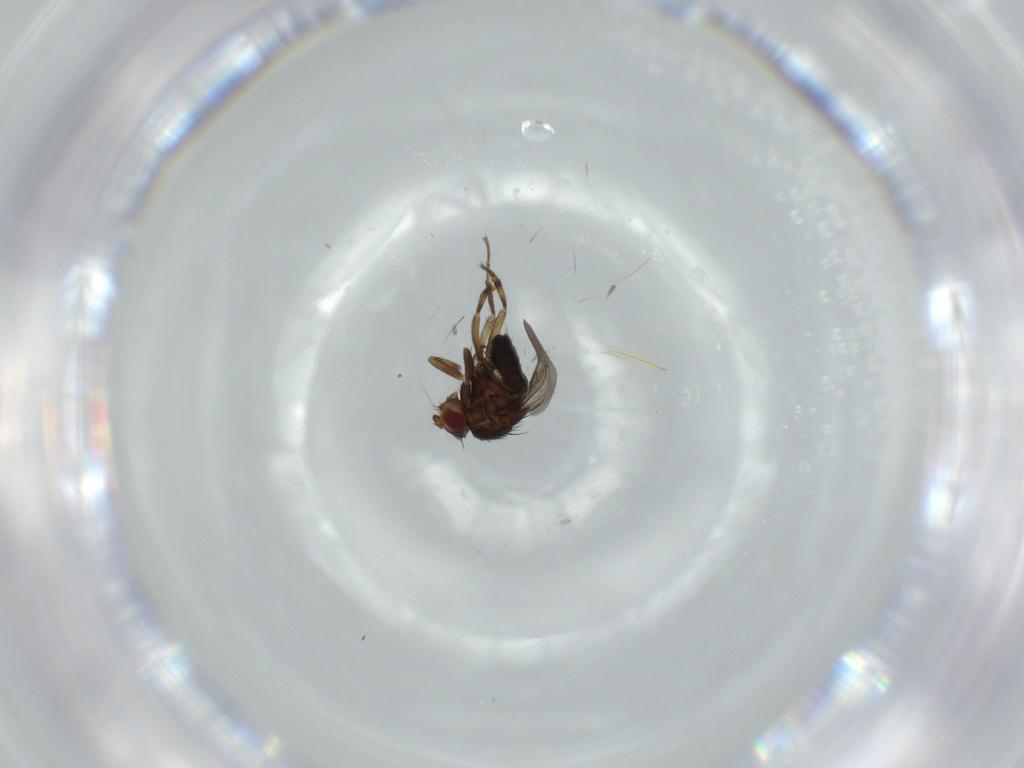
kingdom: Animalia
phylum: Arthropoda
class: Insecta
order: Diptera
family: Sphaeroceridae
